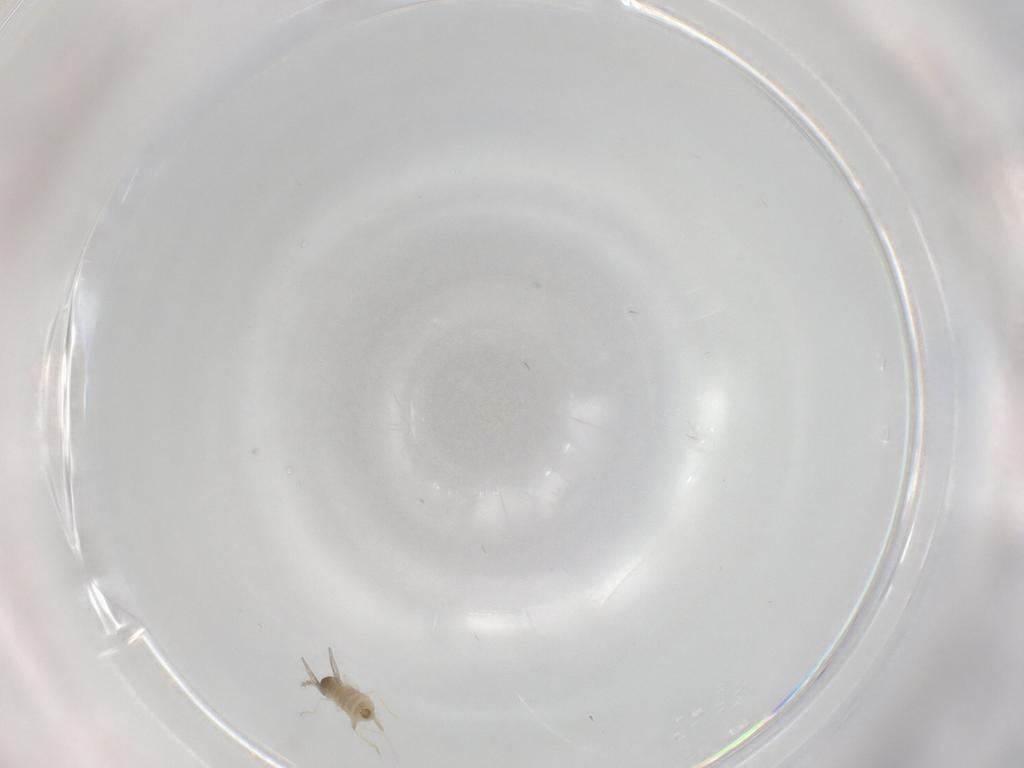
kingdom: Animalia
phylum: Arthropoda
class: Insecta
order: Diptera
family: Cecidomyiidae
